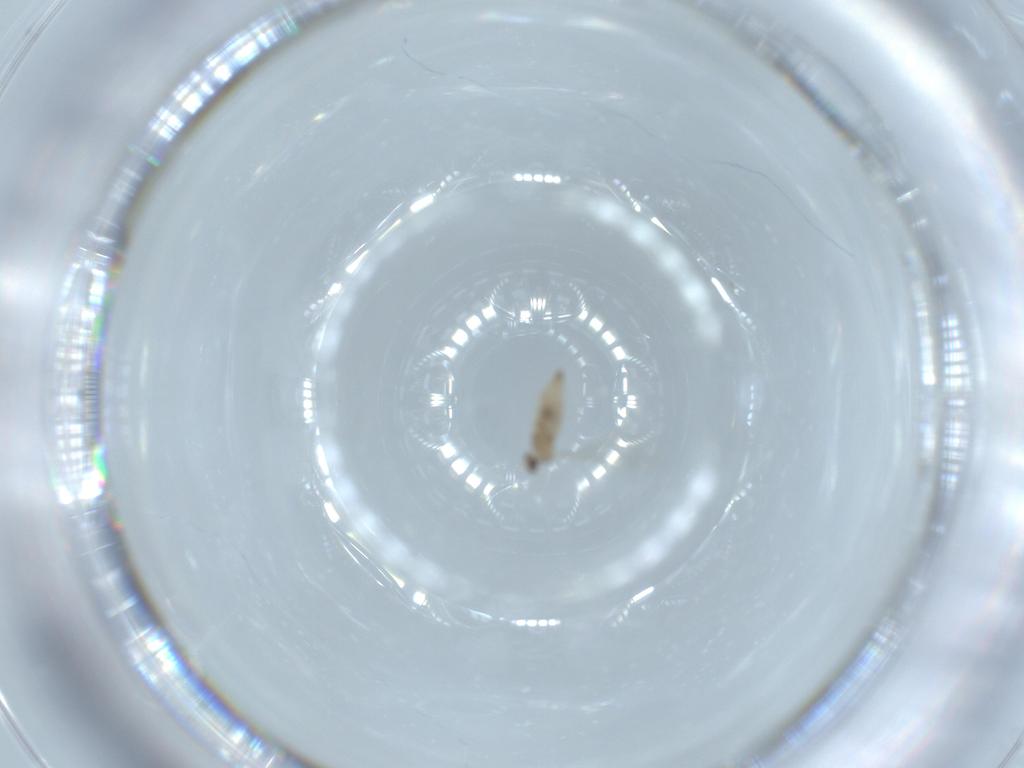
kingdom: Animalia
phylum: Arthropoda
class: Insecta
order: Diptera
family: Cecidomyiidae
